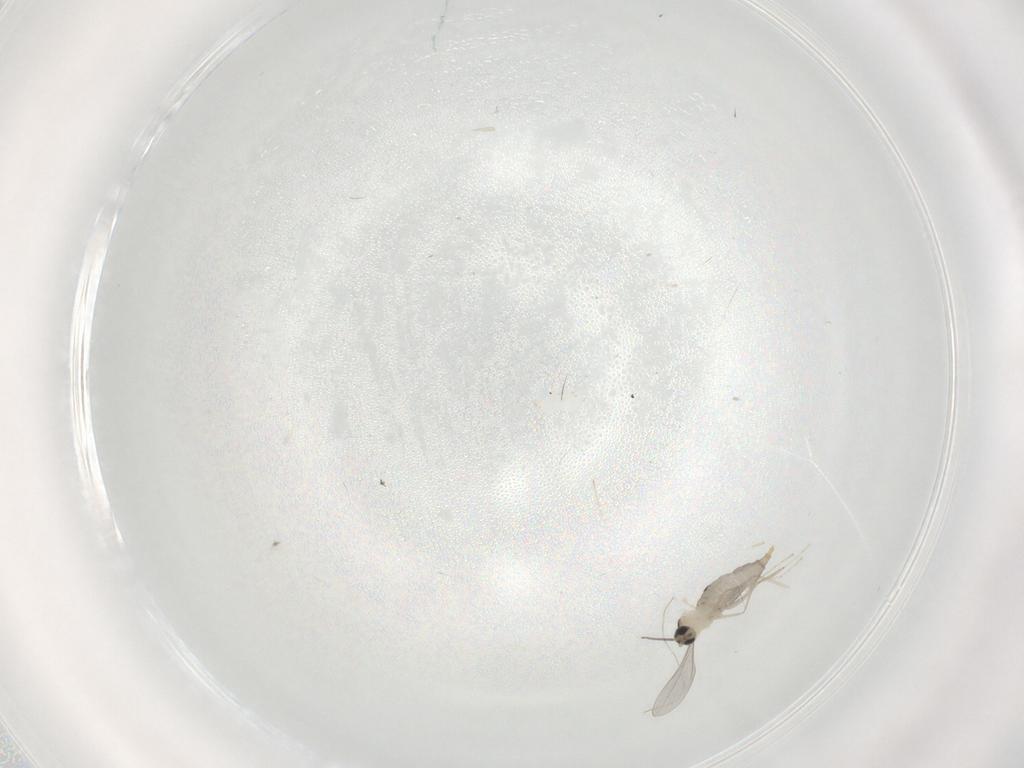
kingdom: Animalia
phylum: Arthropoda
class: Insecta
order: Diptera
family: Cecidomyiidae
